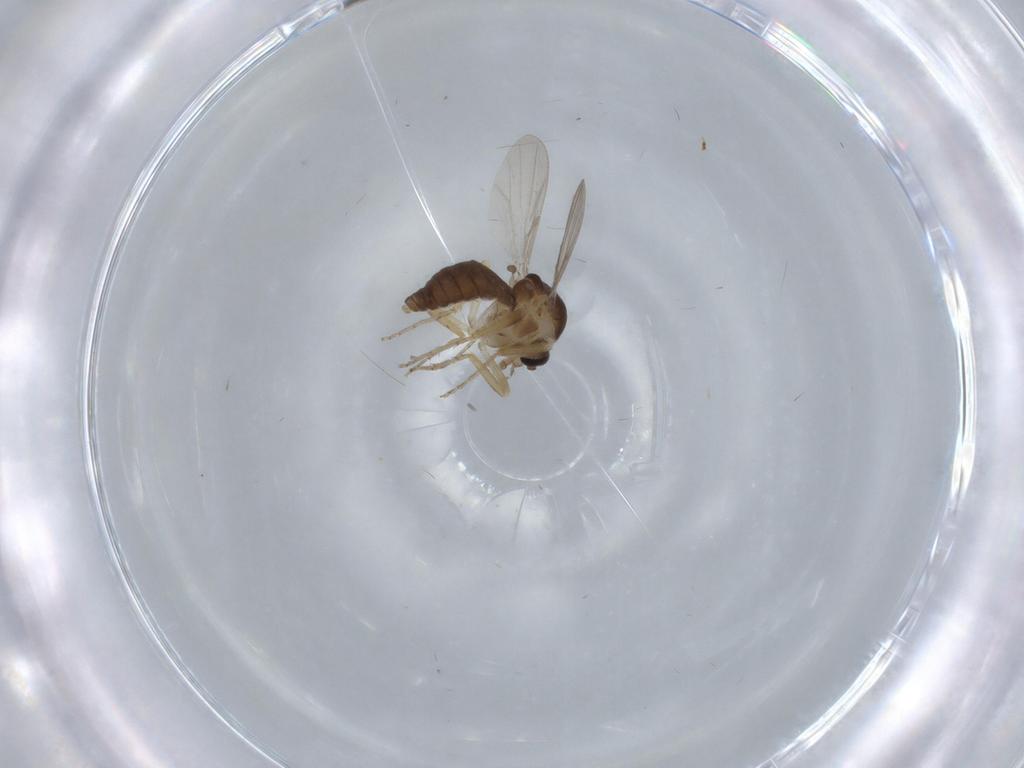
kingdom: Animalia
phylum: Arthropoda
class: Insecta
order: Diptera
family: Ceratopogonidae
